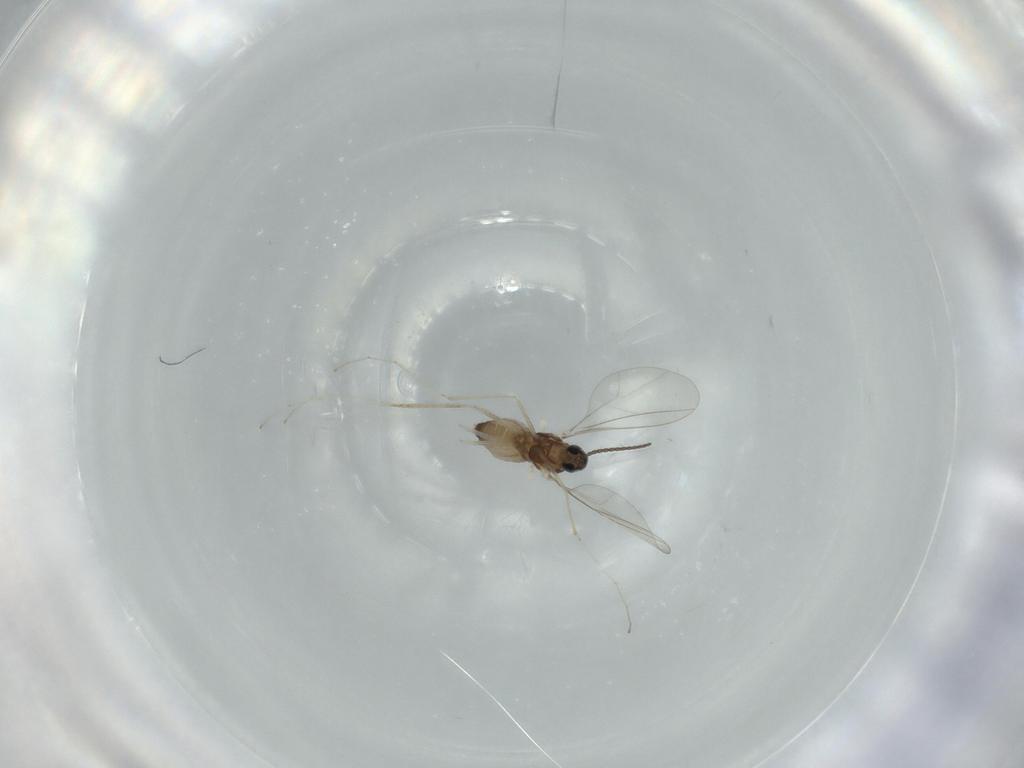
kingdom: Animalia
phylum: Arthropoda
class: Insecta
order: Diptera
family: Cecidomyiidae
